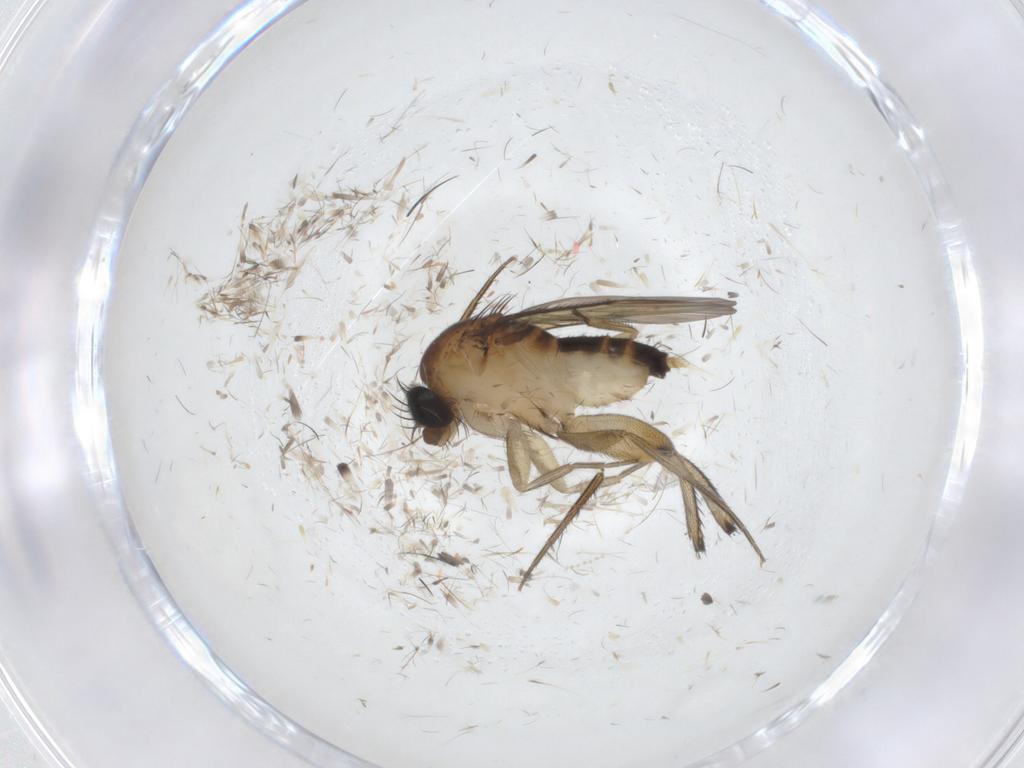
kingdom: Animalia
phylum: Arthropoda
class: Insecta
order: Diptera
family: Phoridae
